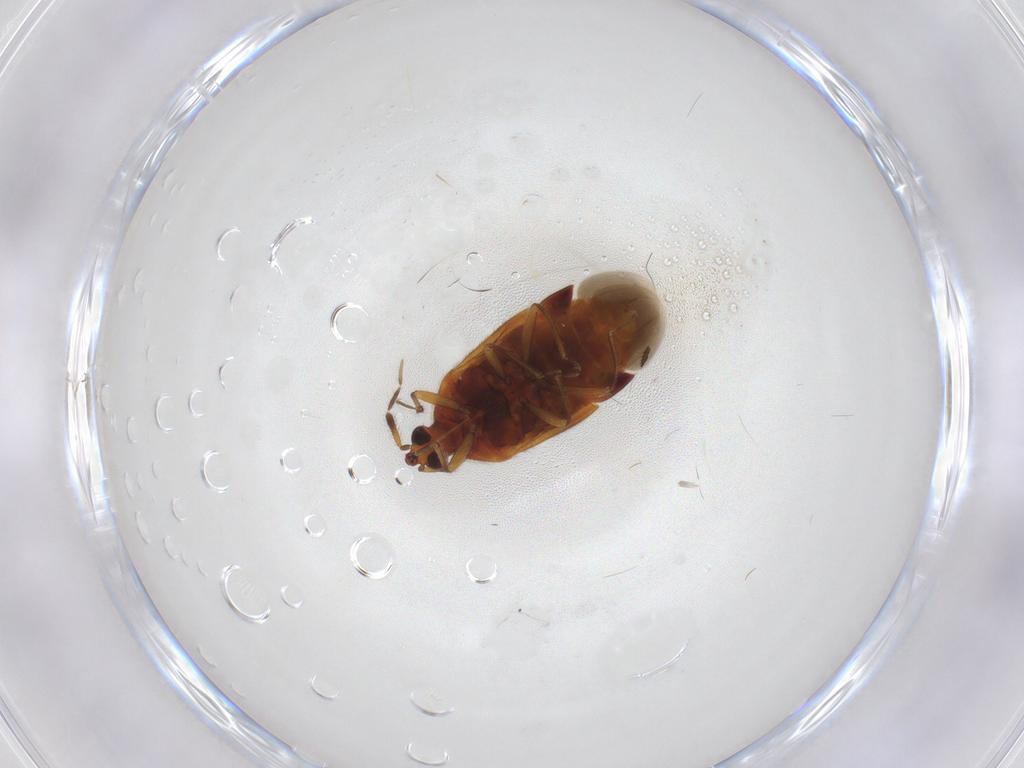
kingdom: Animalia
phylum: Arthropoda
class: Insecta
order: Hemiptera
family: Anthocoridae
